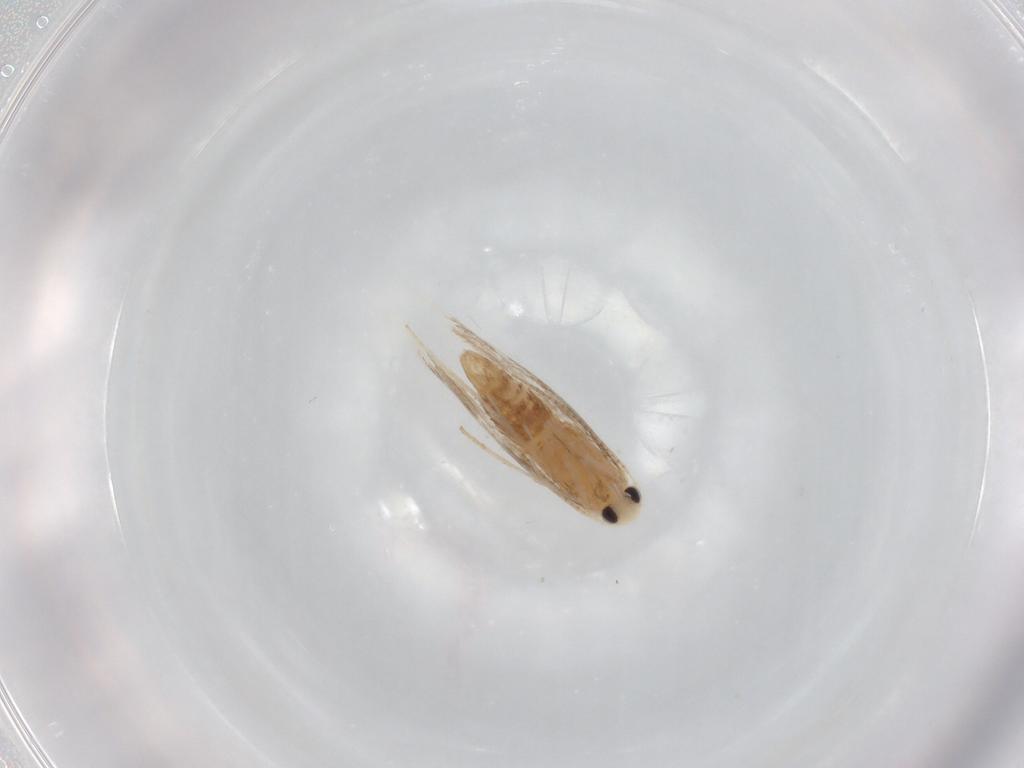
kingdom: Animalia
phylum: Arthropoda
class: Insecta
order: Lepidoptera
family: Gracillariidae
